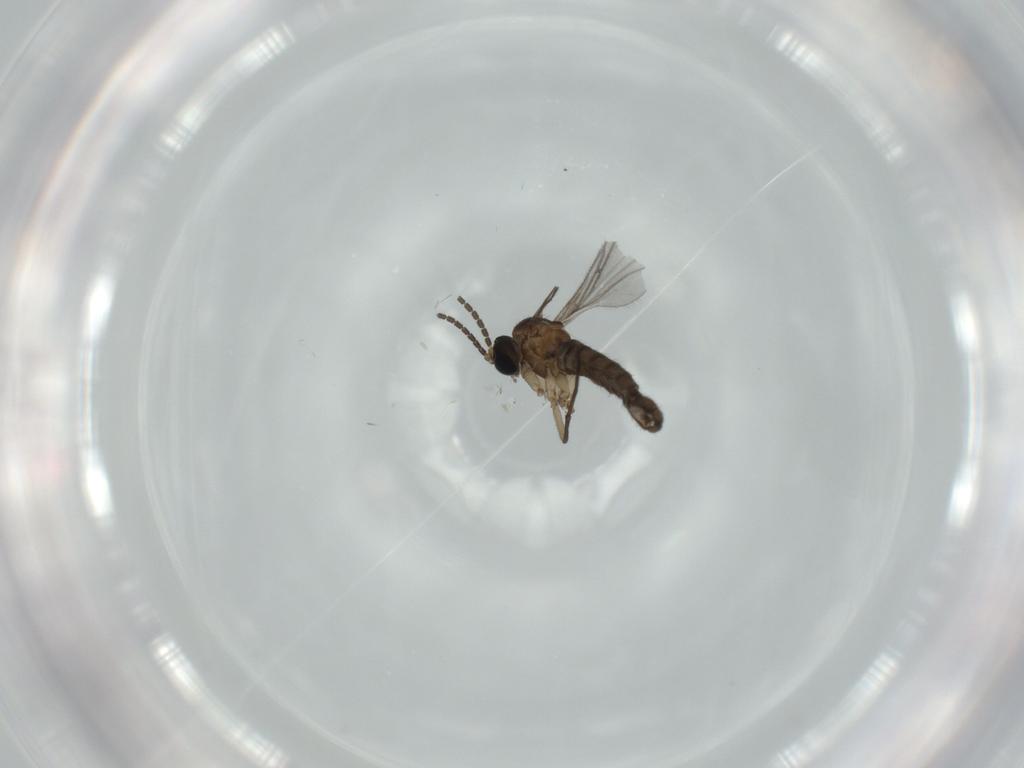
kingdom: Animalia
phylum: Arthropoda
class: Insecta
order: Diptera
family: Sciaridae
